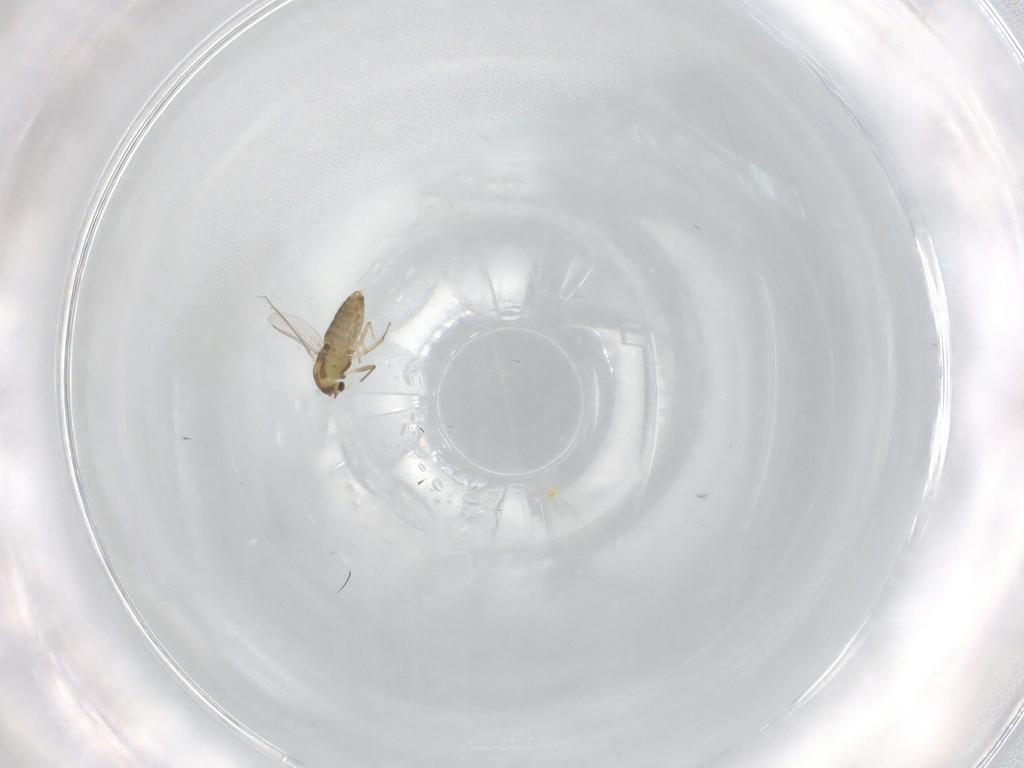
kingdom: Animalia
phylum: Arthropoda
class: Insecta
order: Diptera
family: Chironomidae
